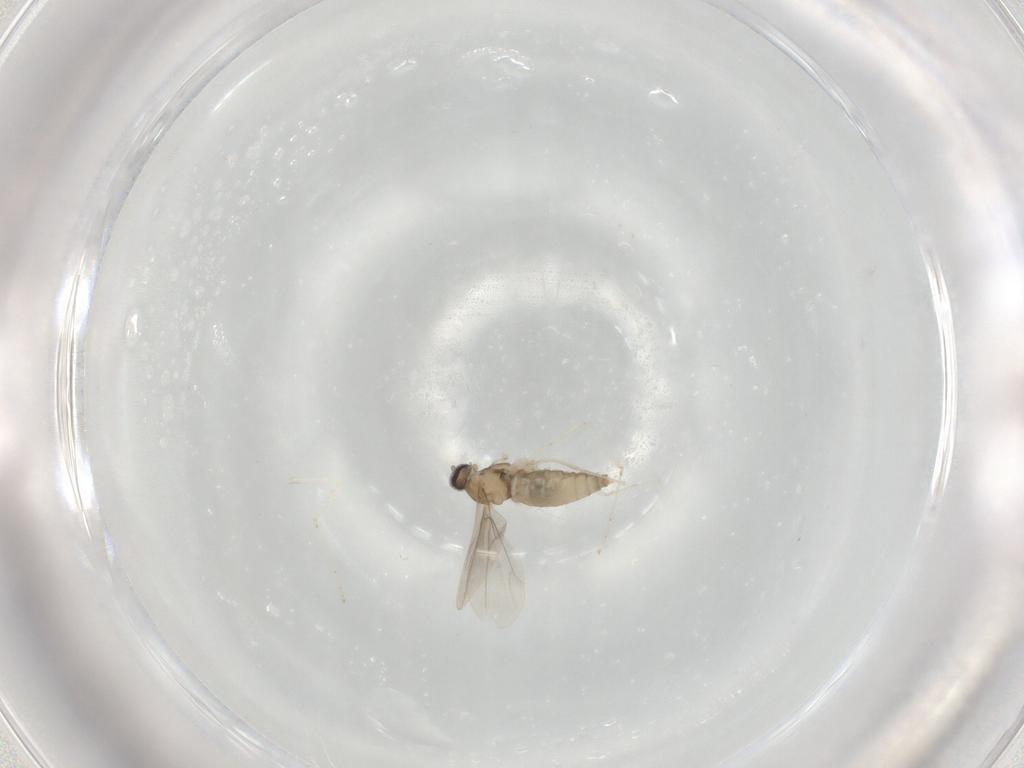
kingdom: Animalia
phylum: Arthropoda
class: Insecta
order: Diptera
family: Cecidomyiidae
